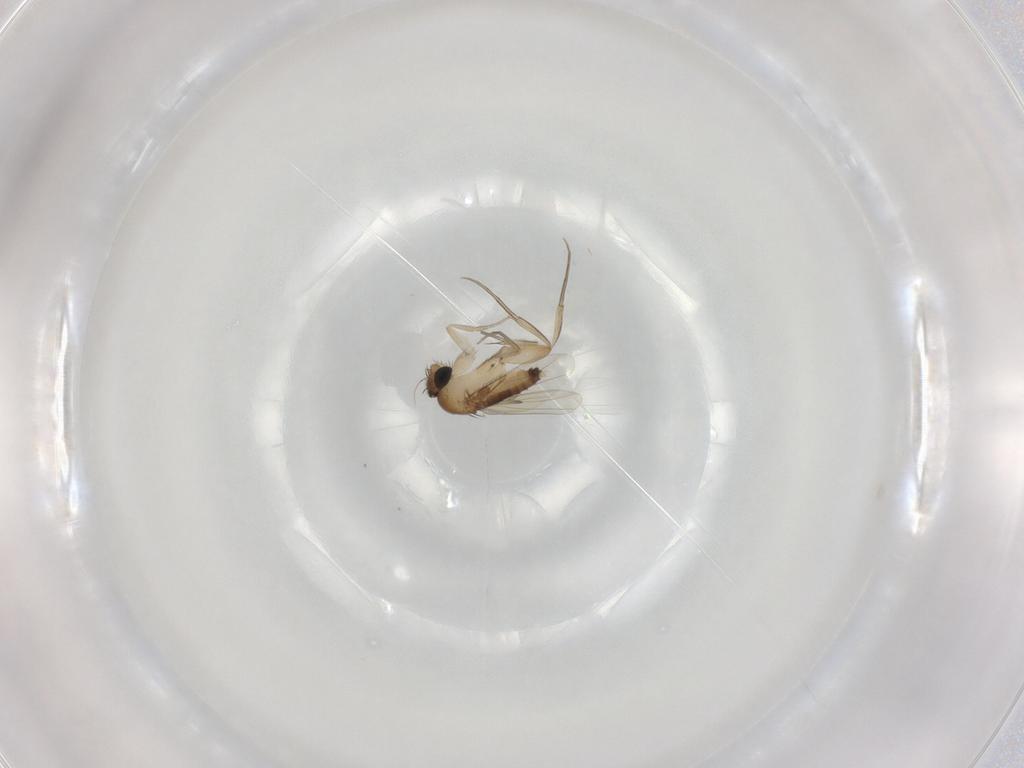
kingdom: Animalia
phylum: Arthropoda
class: Insecta
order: Diptera
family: Phoridae
